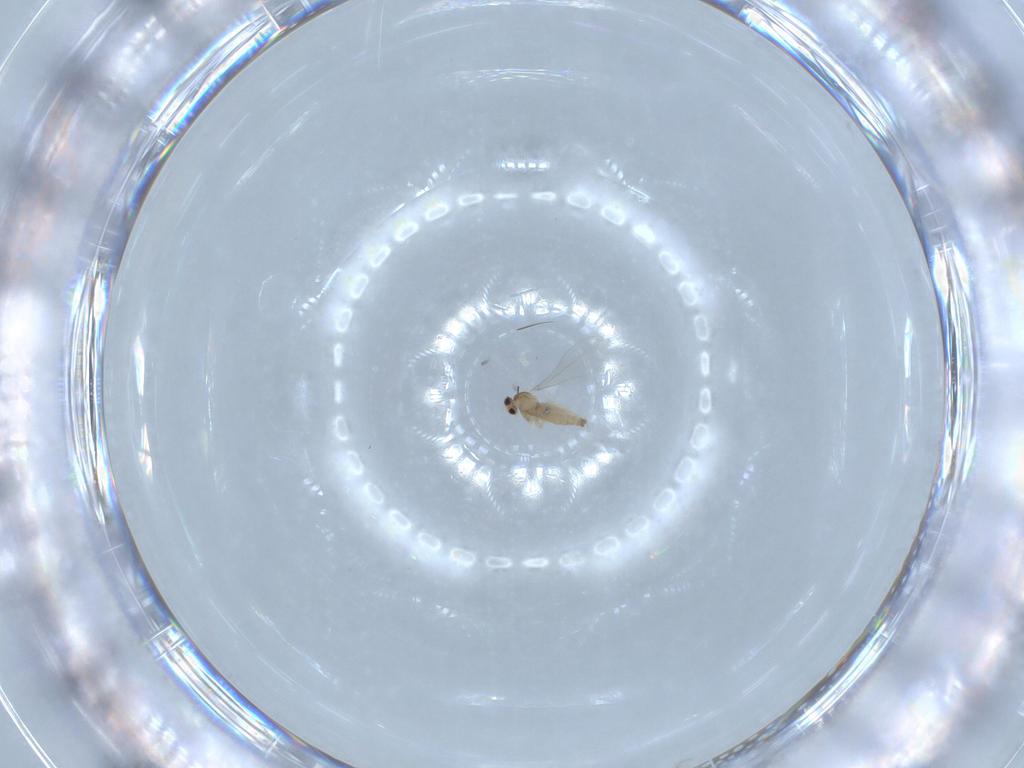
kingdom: Animalia
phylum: Arthropoda
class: Insecta
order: Diptera
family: Cecidomyiidae
